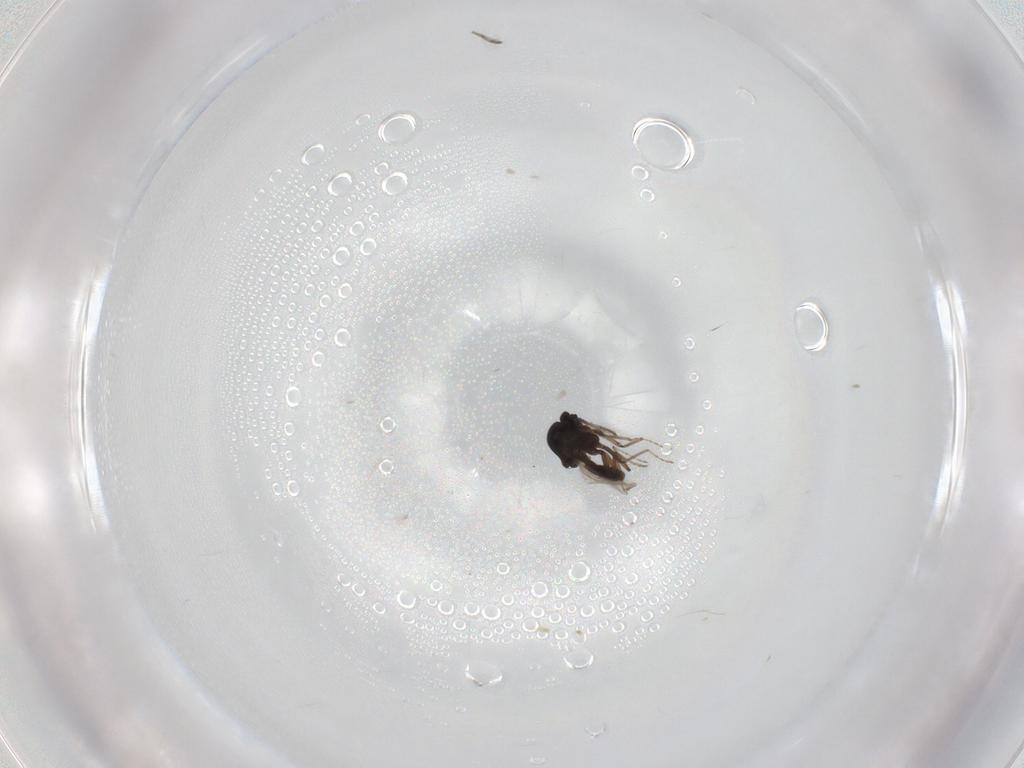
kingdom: Animalia
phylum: Arthropoda
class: Insecta
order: Diptera
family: Ceratopogonidae
